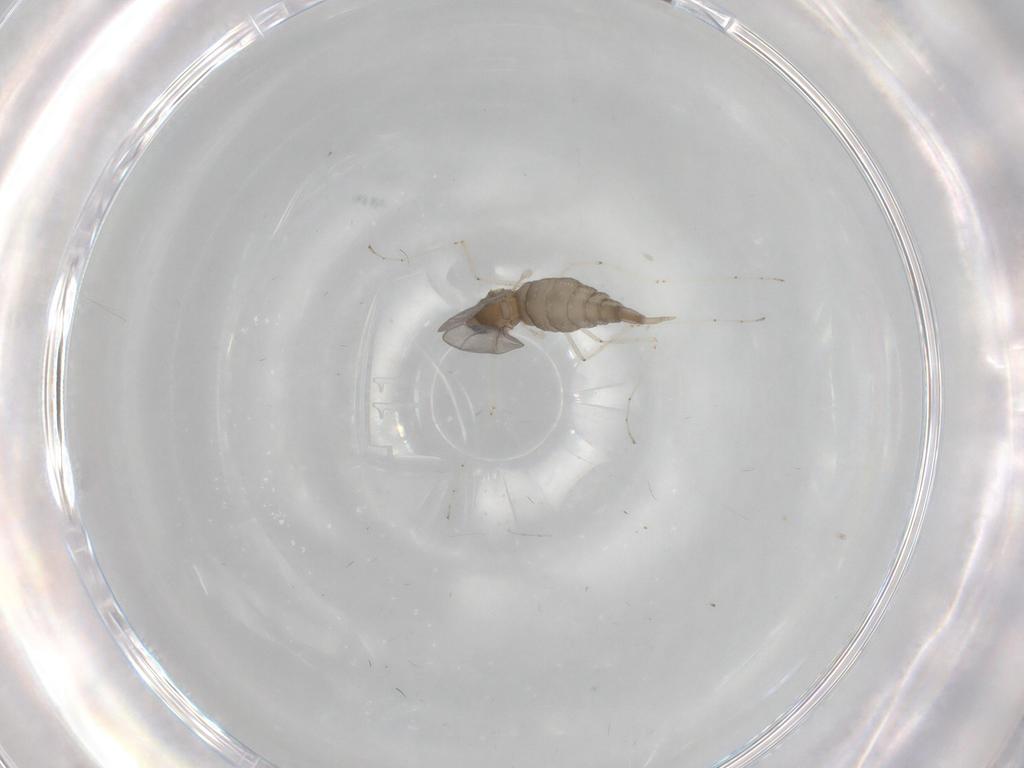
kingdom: Animalia
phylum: Arthropoda
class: Insecta
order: Diptera
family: Cecidomyiidae
